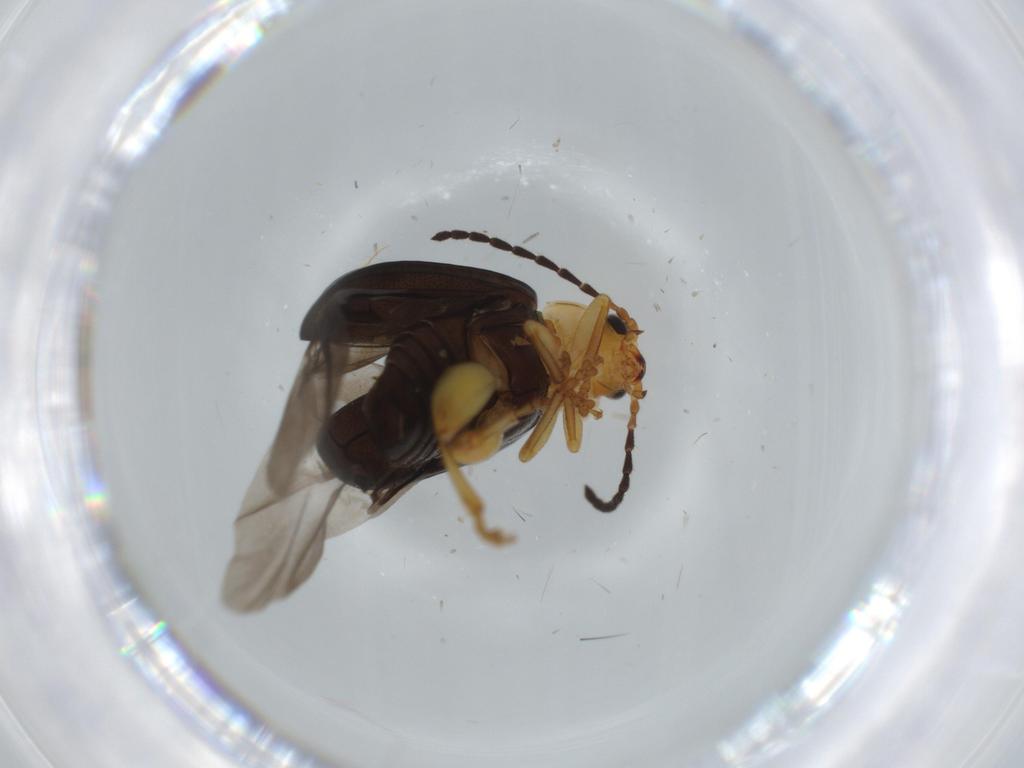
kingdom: Animalia
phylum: Arthropoda
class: Insecta
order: Coleoptera
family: Chrysomelidae
